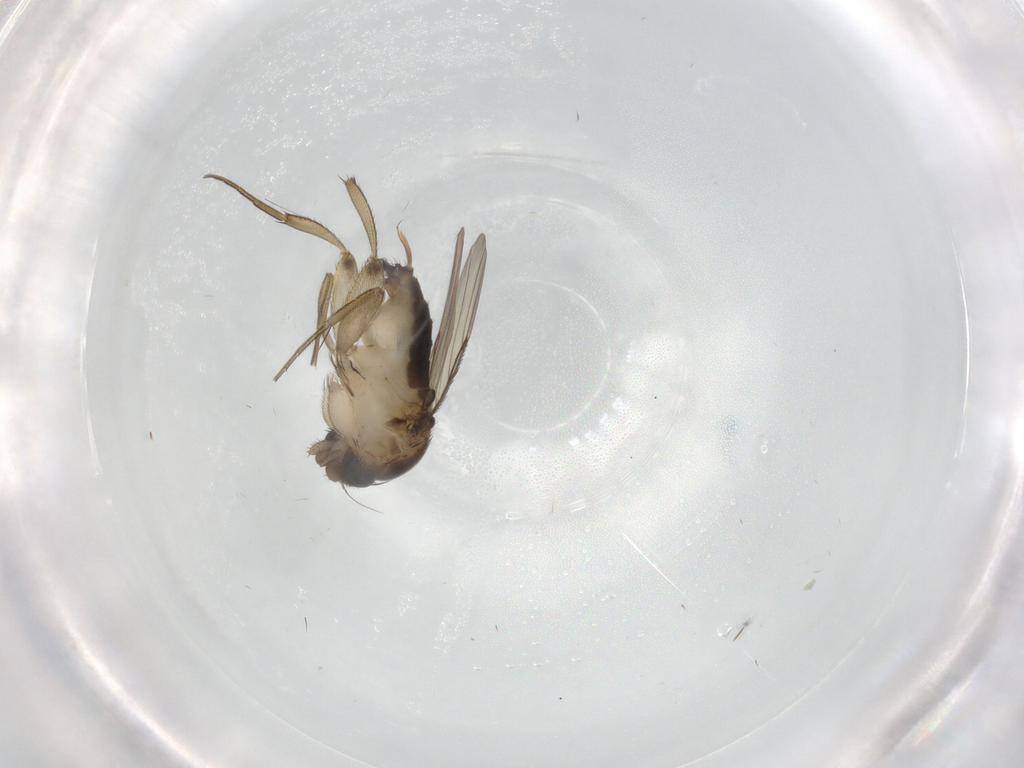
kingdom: Animalia
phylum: Arthropoda
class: Insecta
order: Diptera
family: Phoridae
